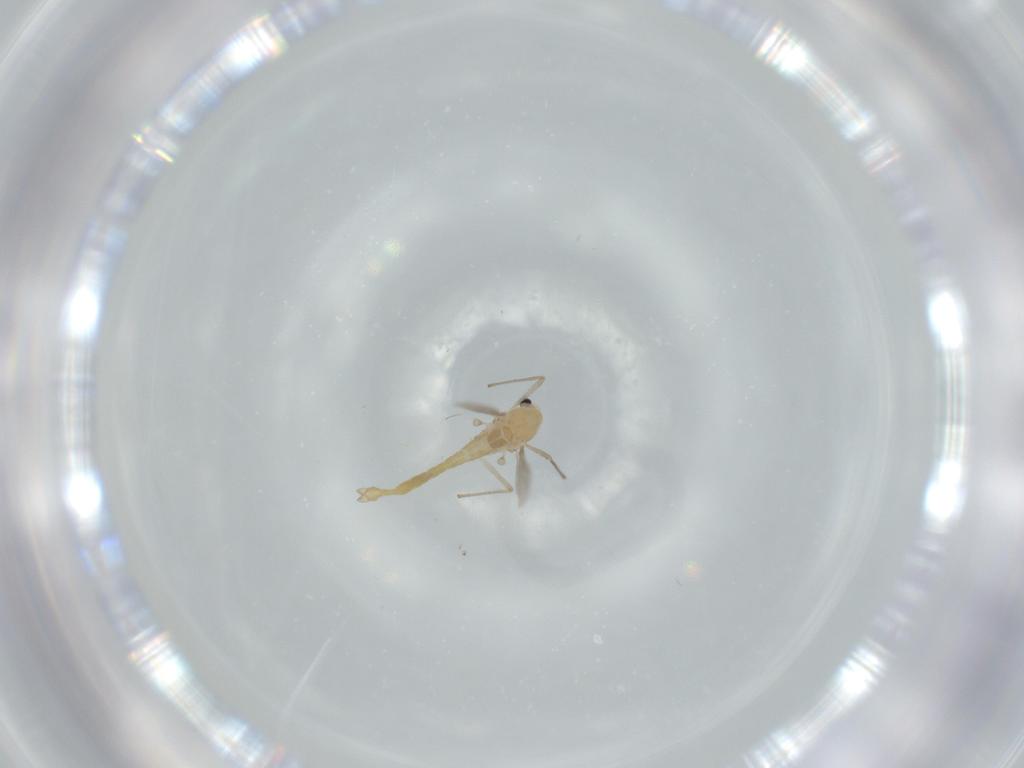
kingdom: Animalia
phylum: Arthropoda
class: Insecta
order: Diptera
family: Chironomidae
